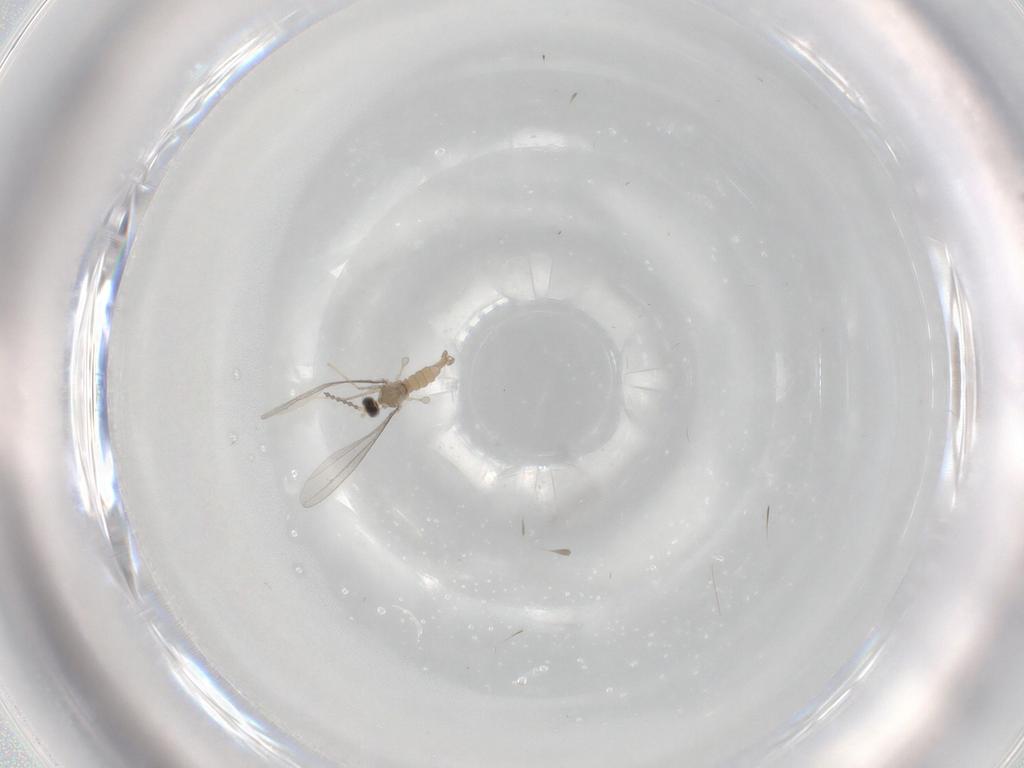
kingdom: Animalia
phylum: Arthropoda
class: Insecta
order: Diptera
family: Cecidomyiidae
